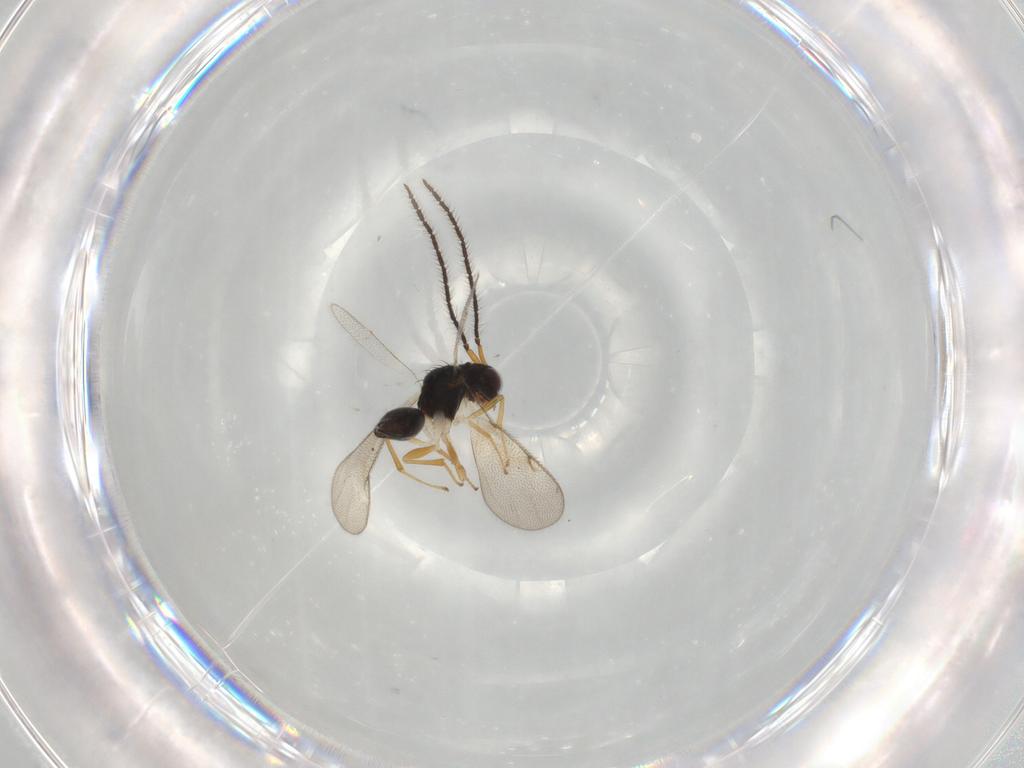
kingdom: Animalia
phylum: Arthropoda
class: Insecta
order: Hymenoptera
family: Diparidae
